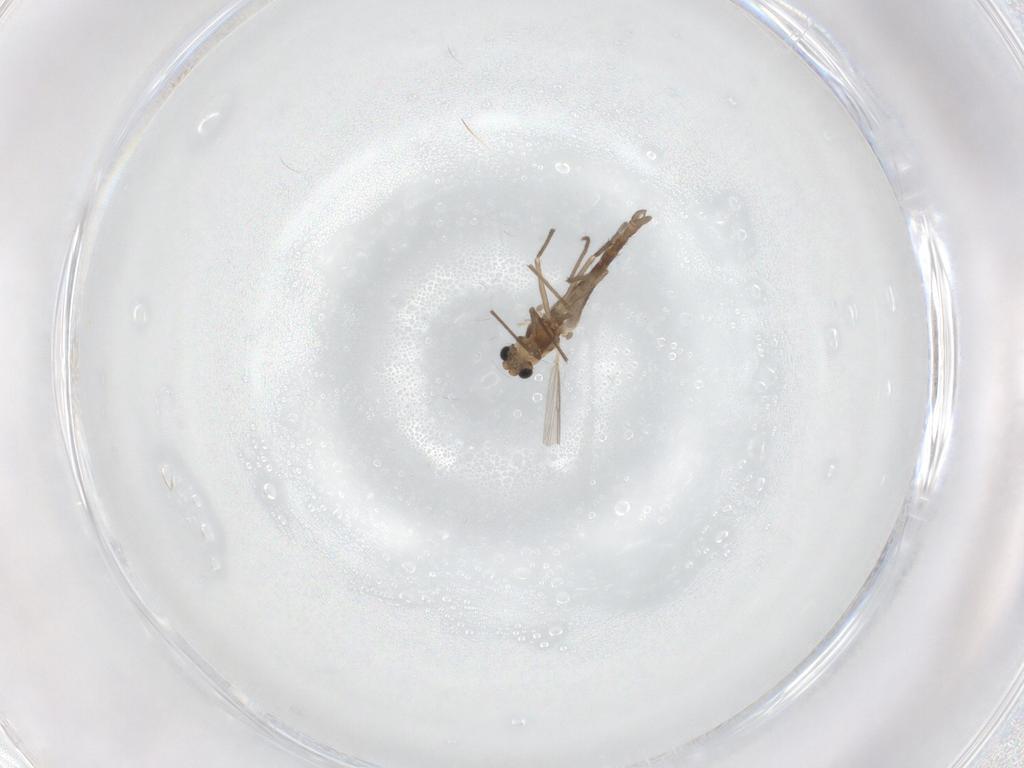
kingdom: Animalia
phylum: Arthropoda
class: Insecta
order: Diptera
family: Chironomidae
